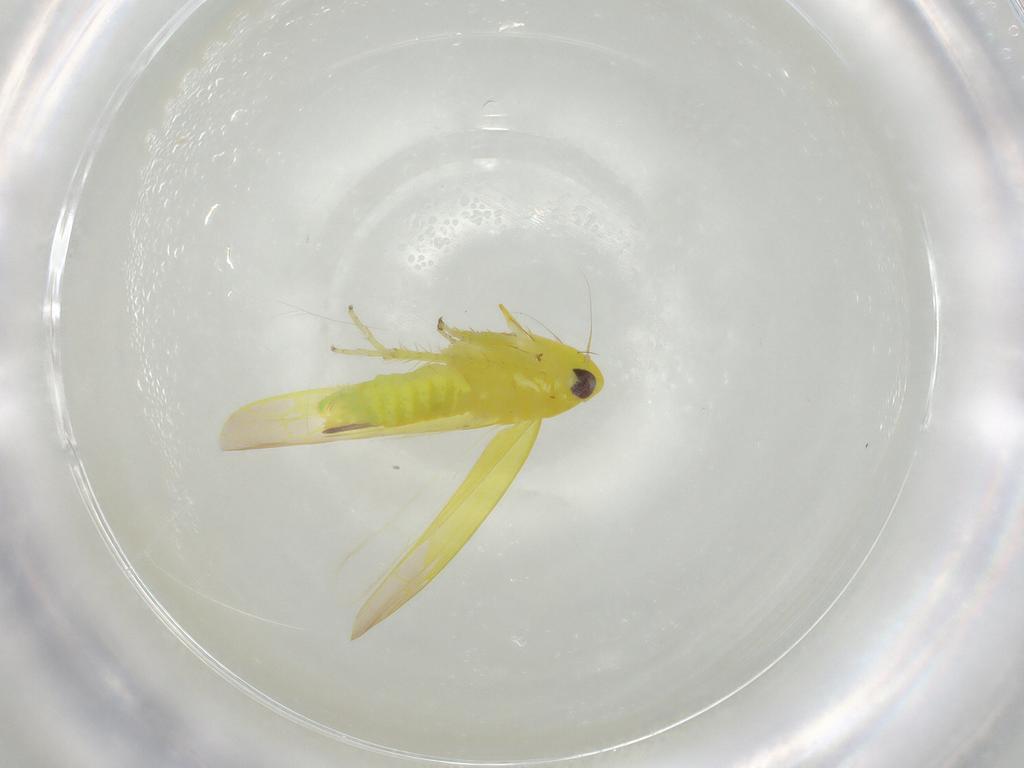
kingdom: Animalia
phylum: Arthropoda
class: Insecta
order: Hemiptera
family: Cicadellidae
